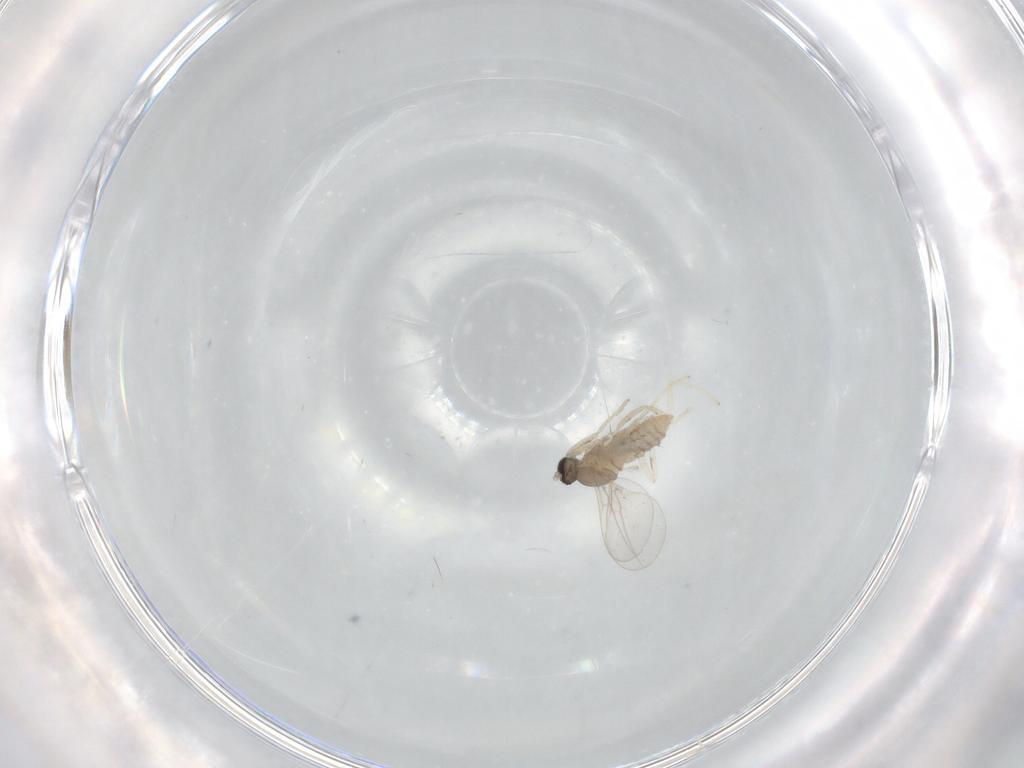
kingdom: Animalia
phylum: Arthropoda
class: Insecta
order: Diptera
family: Cecidomyiidae
